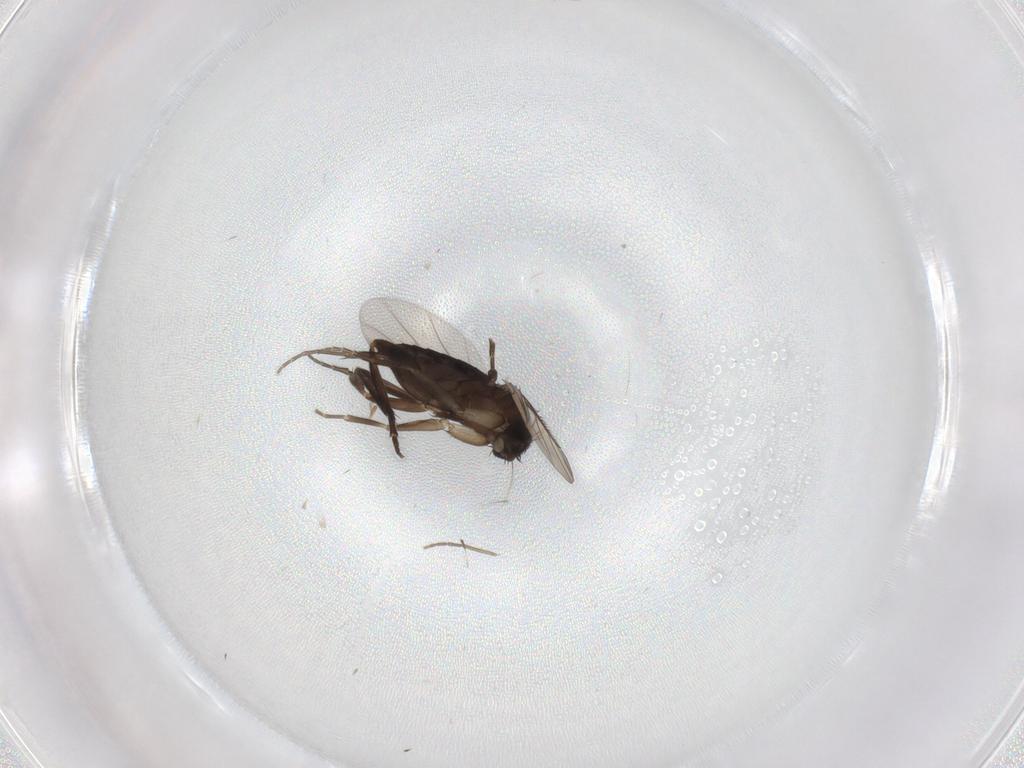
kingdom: Animalia
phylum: Arthropoda
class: Insecta
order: Diptera
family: Phoridae
